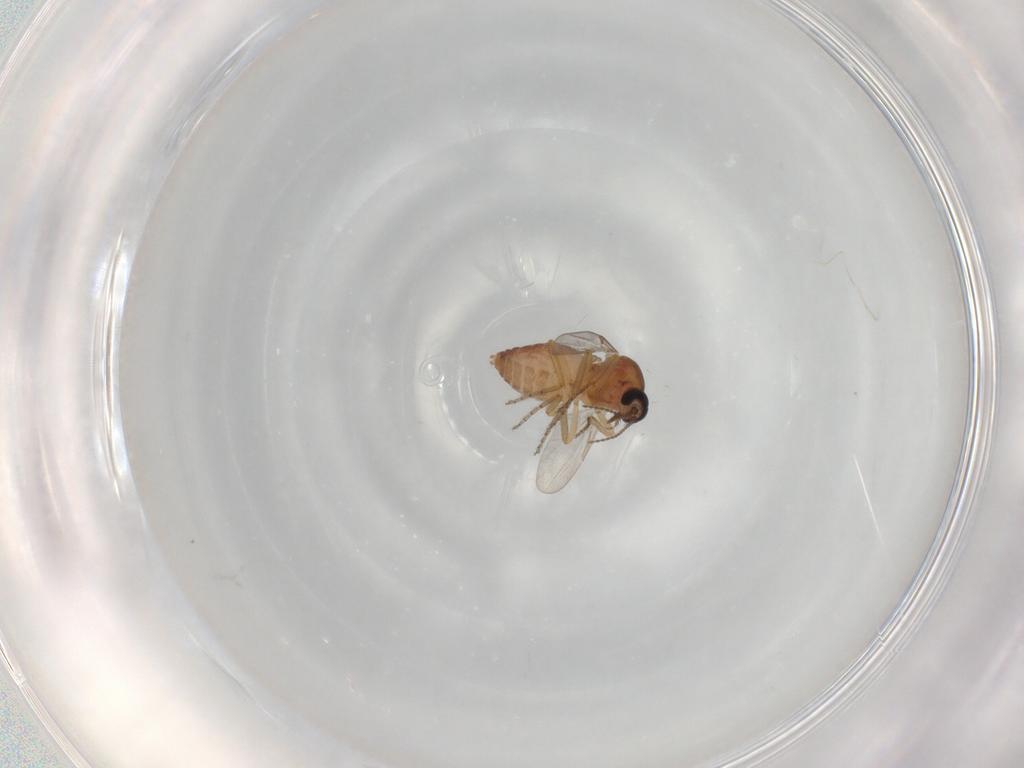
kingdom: Animalia
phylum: Arthropoda
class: Insecta
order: Diptera
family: Ceratopogonidae
